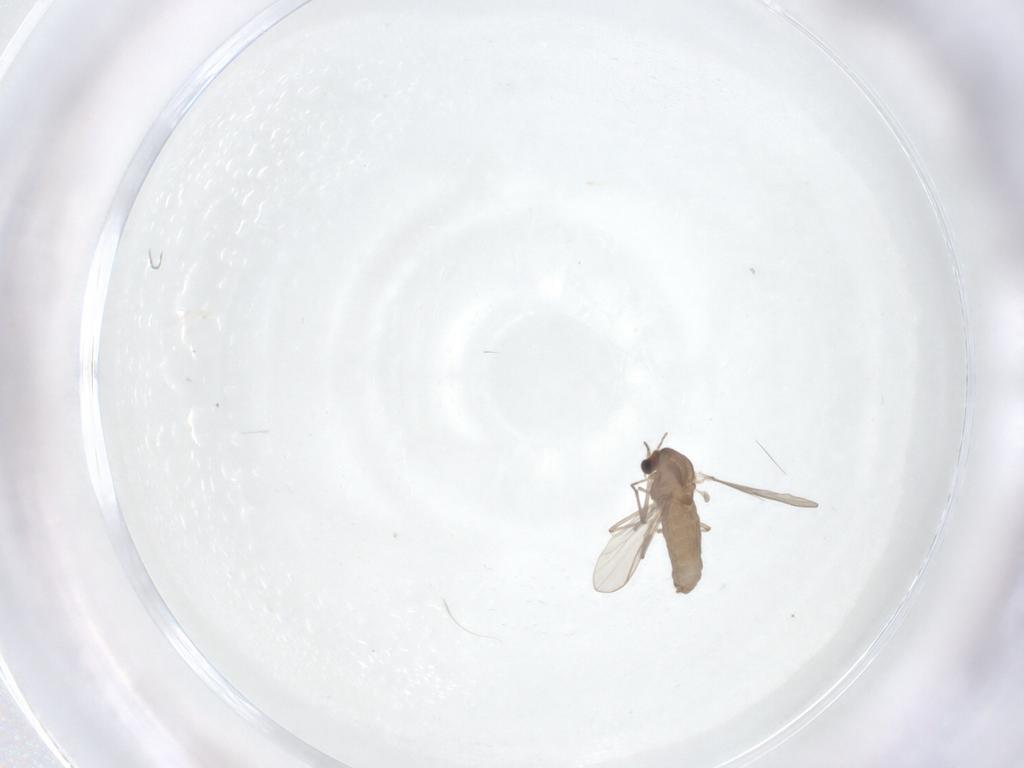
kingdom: Animalia
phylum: Arthropoda
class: Insecta
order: Diptera
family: Chironomidae
